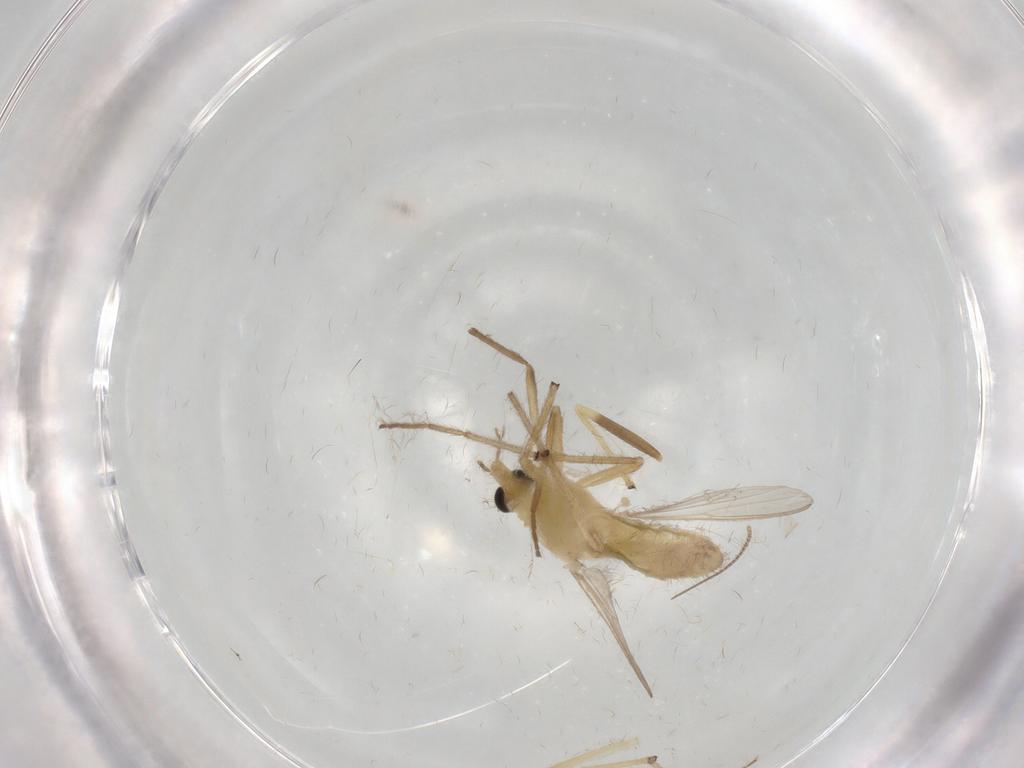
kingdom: Animalia
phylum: Arthropoda
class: Insecta
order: Diptera
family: Chironomidae
